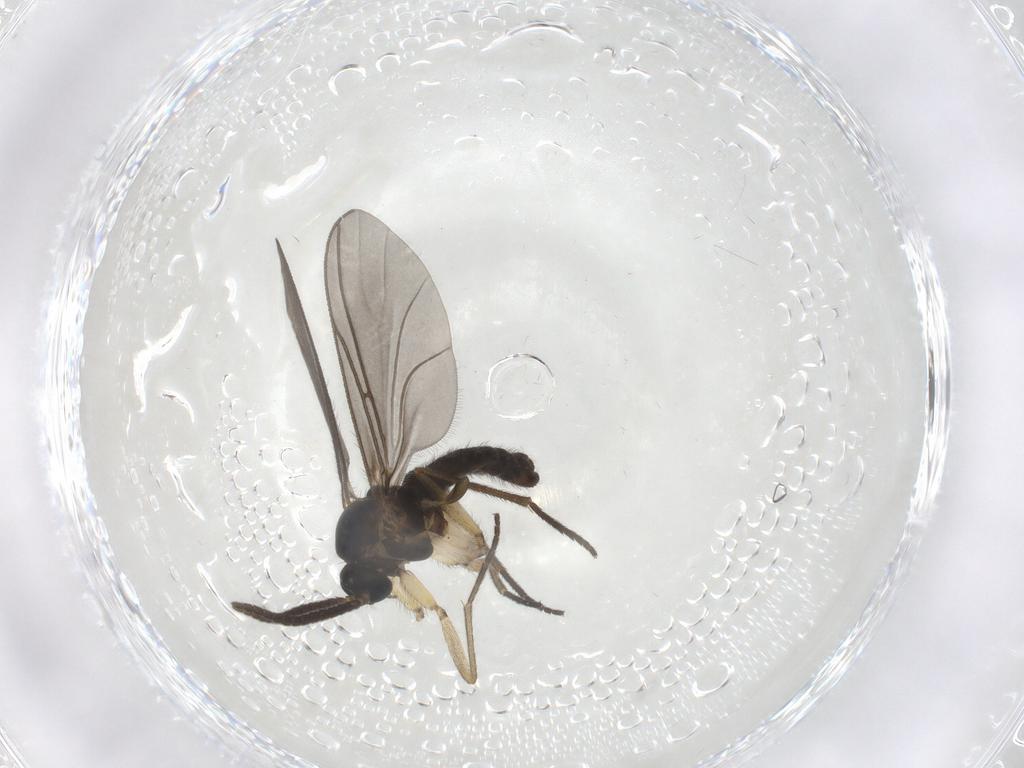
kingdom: Animalia
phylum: Arthropoda
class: Insecta
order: Diptera
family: Sciaridae
